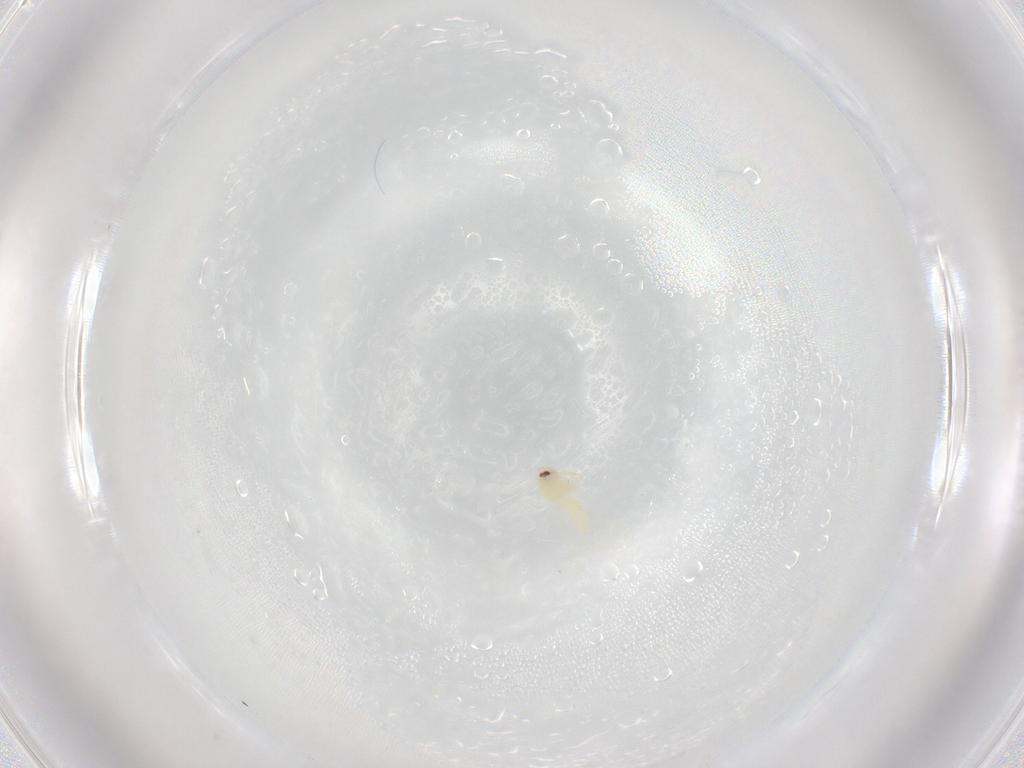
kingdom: Animalia
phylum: Arthropoda
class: Insecta
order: Hemiptera
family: Aleyrodidae
